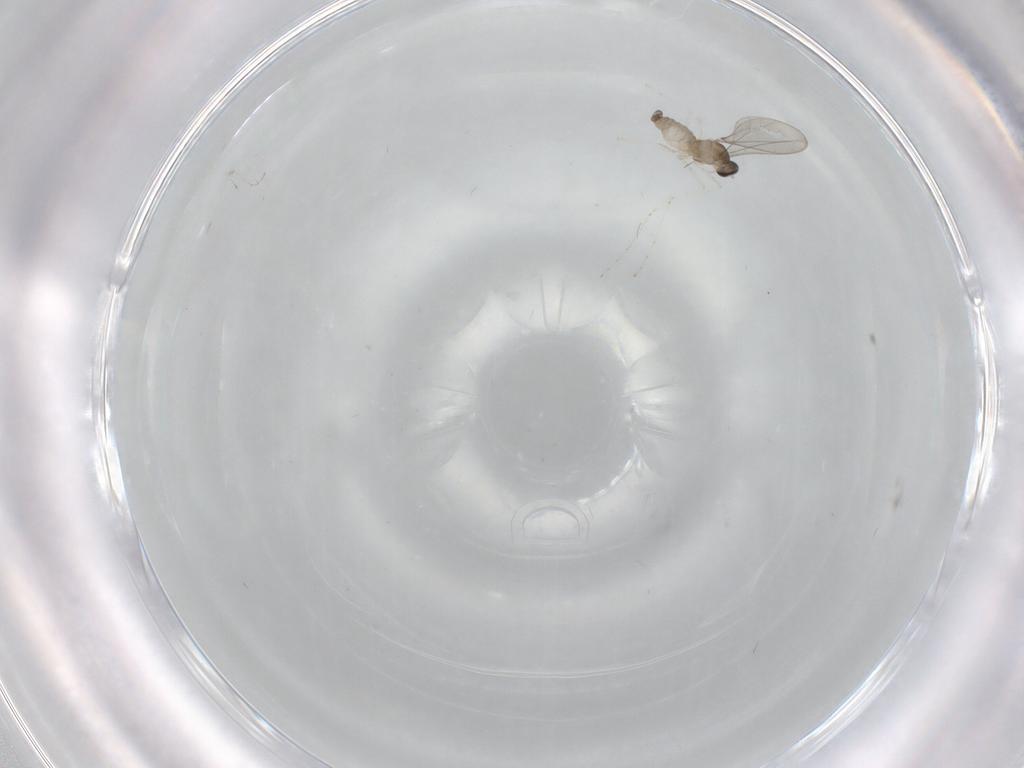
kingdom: Animalia
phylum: Arthropoda
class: Insecta
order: Diptera
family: Cecidomyiidae
